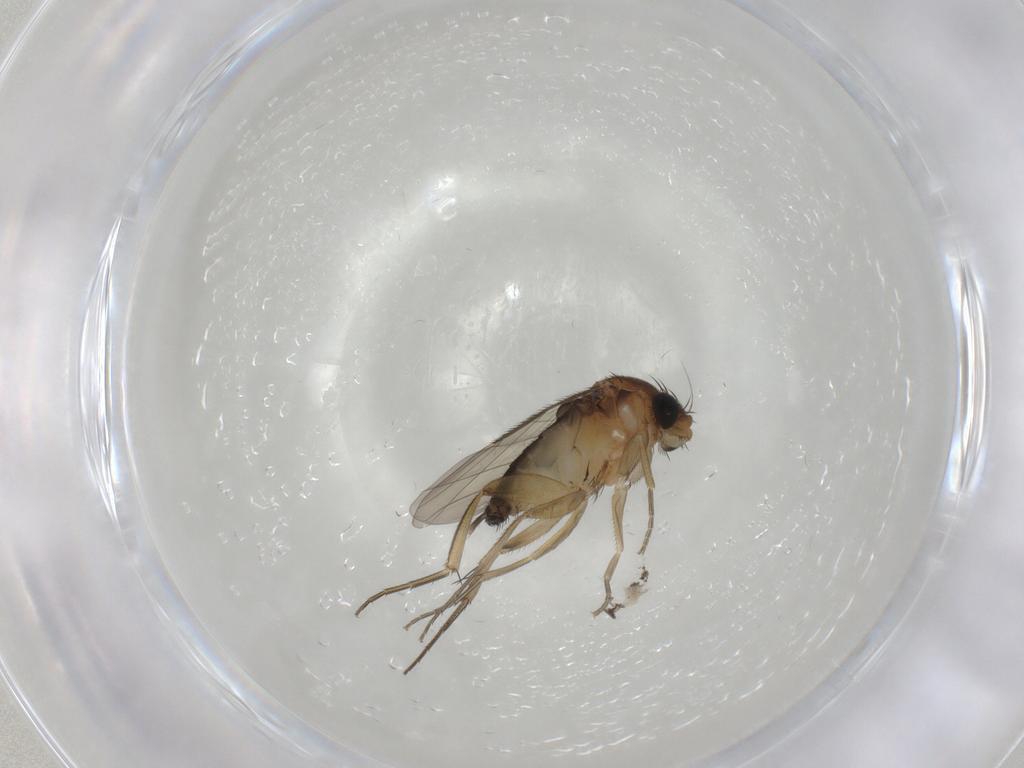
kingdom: Animalia
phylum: Arthropoda
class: Insecta
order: Diptera
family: Phoridae
